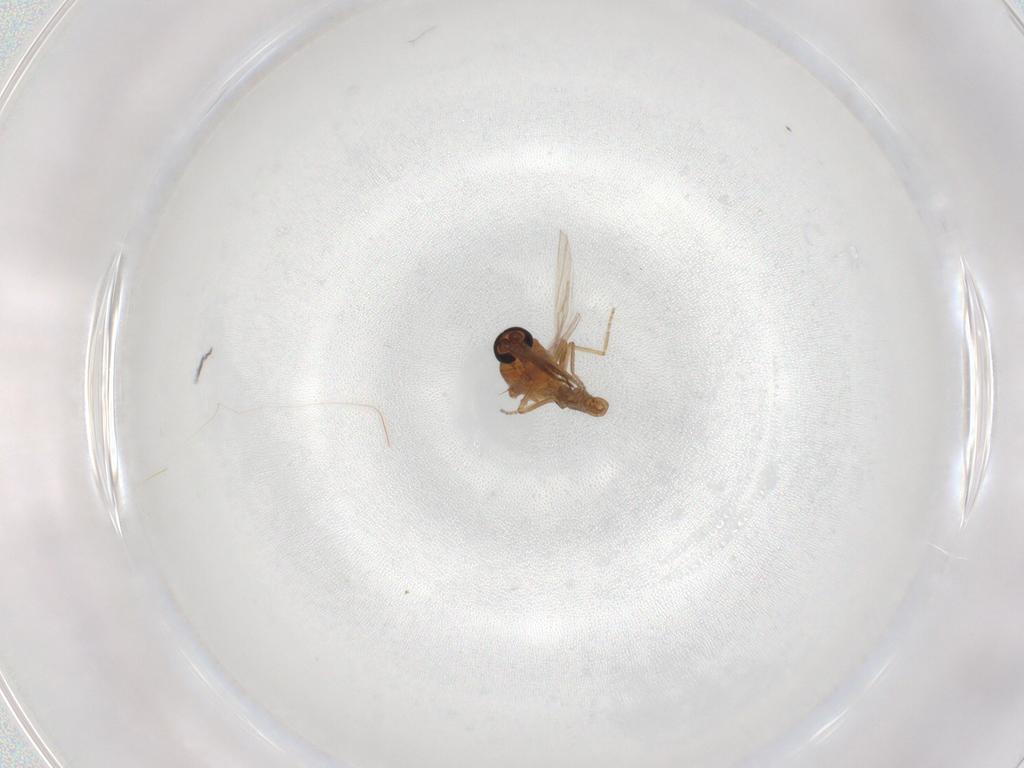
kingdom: Animalia
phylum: Arthropoda
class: Insecta
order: Diptera
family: Ceratopogonidae
